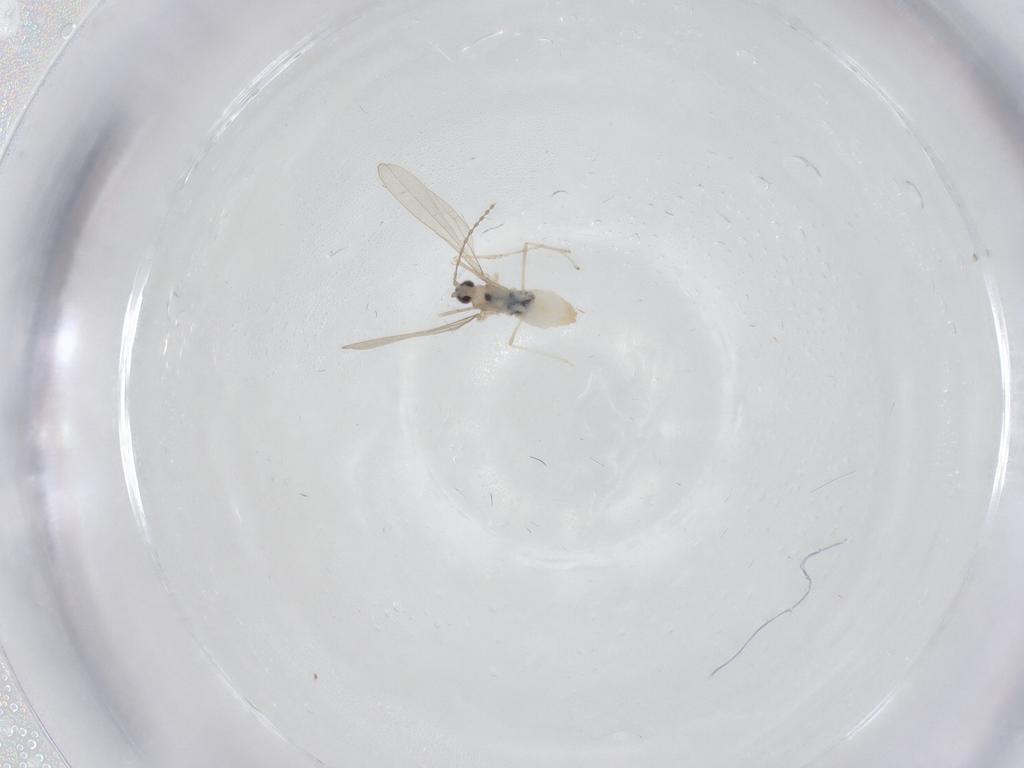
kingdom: Animalia
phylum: Arthropoda
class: Insecta
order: Diptera
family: Cecidomyiidae
